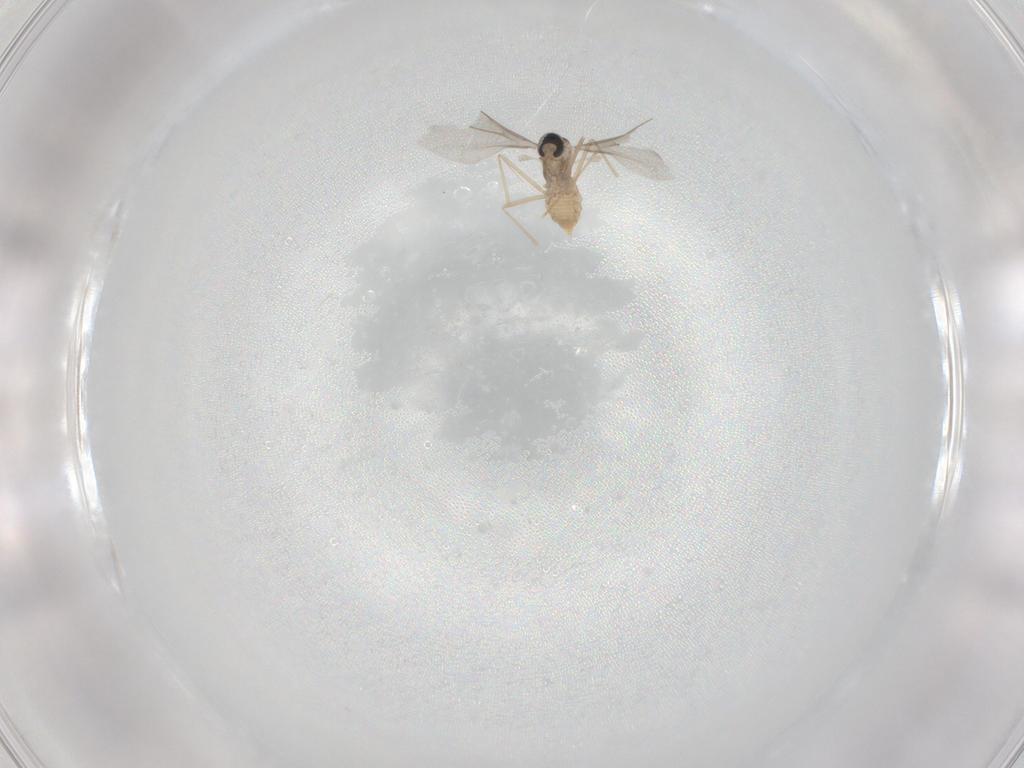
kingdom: Animalia
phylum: Arthropoda
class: Insecta
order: Diptera
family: Cecidomyiidae
